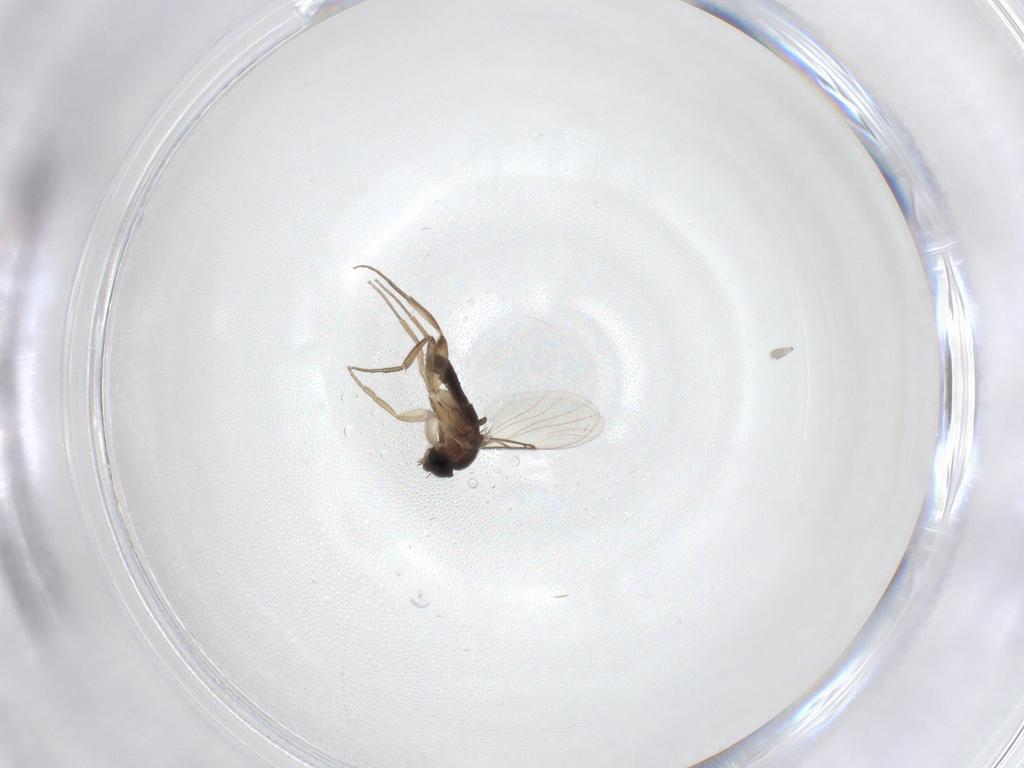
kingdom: Animalia
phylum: Arthropoda
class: Insecta
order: Diptera
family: Phoridae
